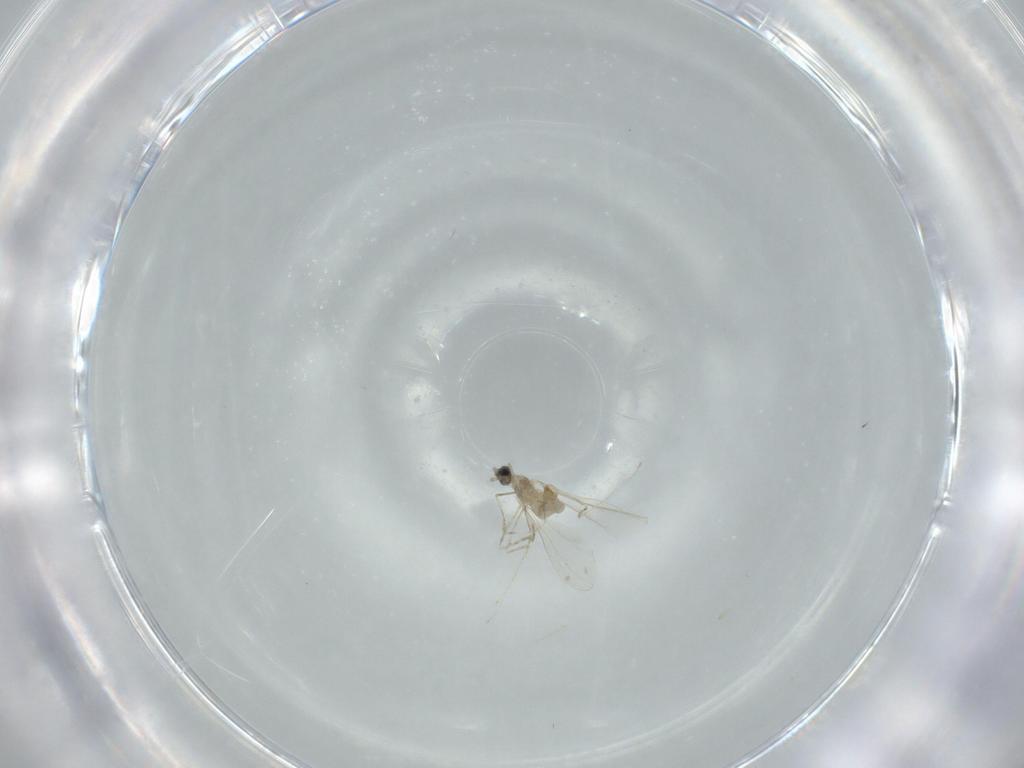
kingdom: Animalia
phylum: Arthropoda
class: Insecta
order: Diptera
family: Cecidomyiidae
